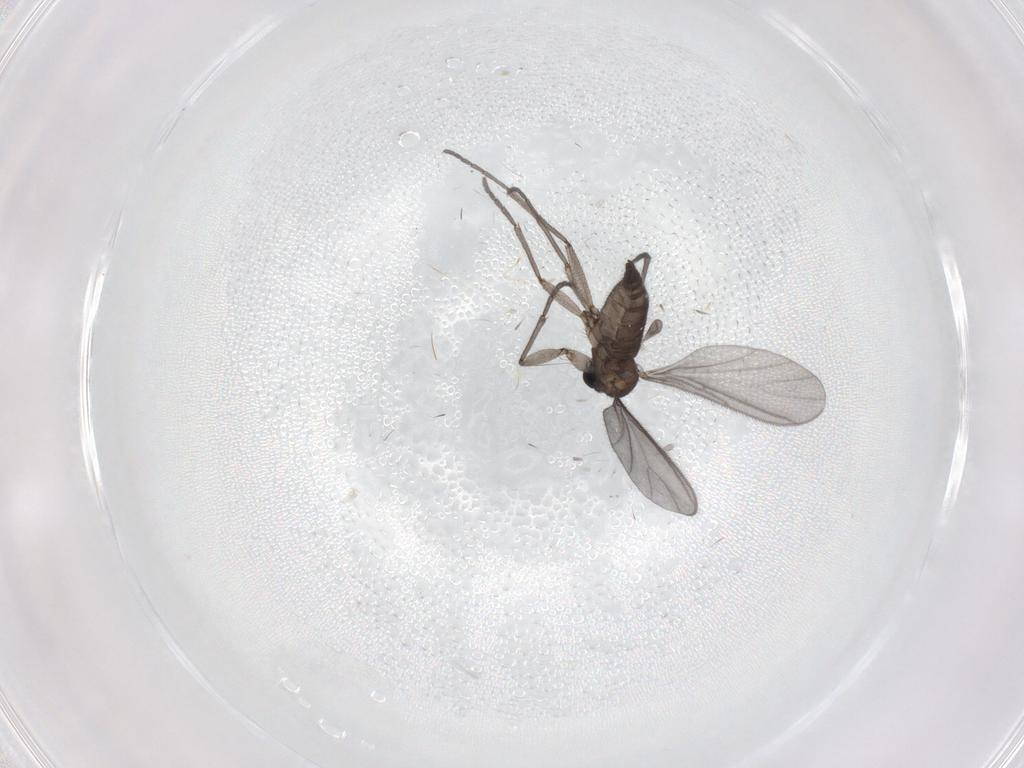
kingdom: Animalia
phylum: Arthropoda
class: Insecta
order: Diptera
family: Sciaridae
